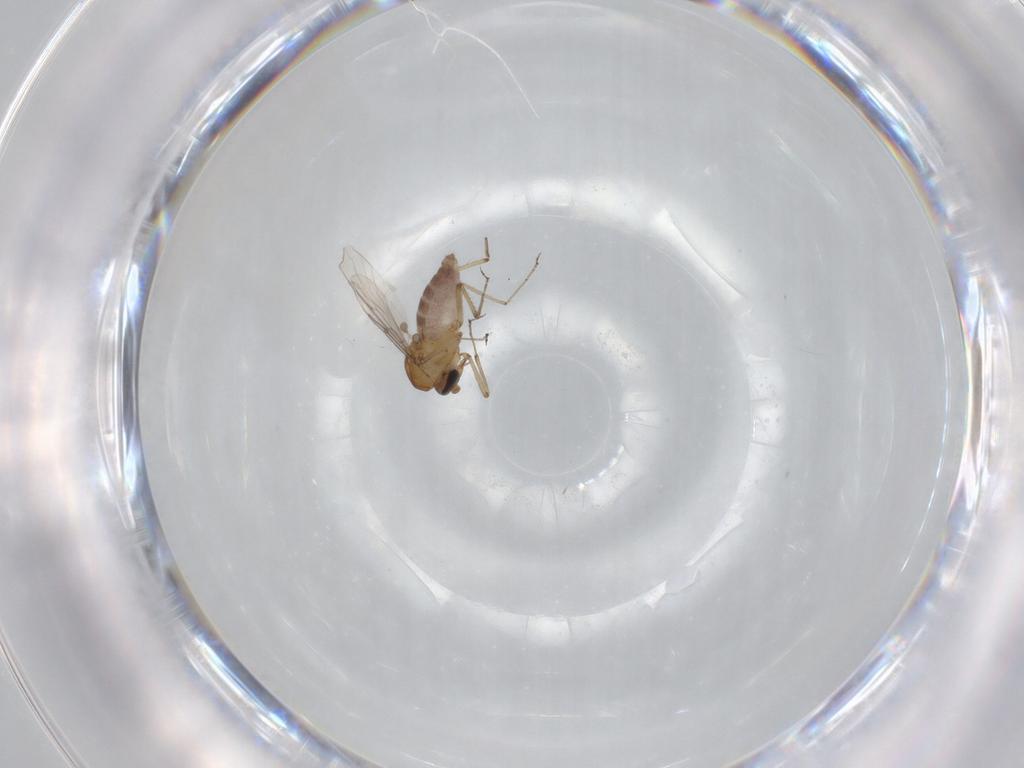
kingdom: Animalia
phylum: Arthropoda
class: Insecta
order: Diptera
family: Ceratopogonidae
